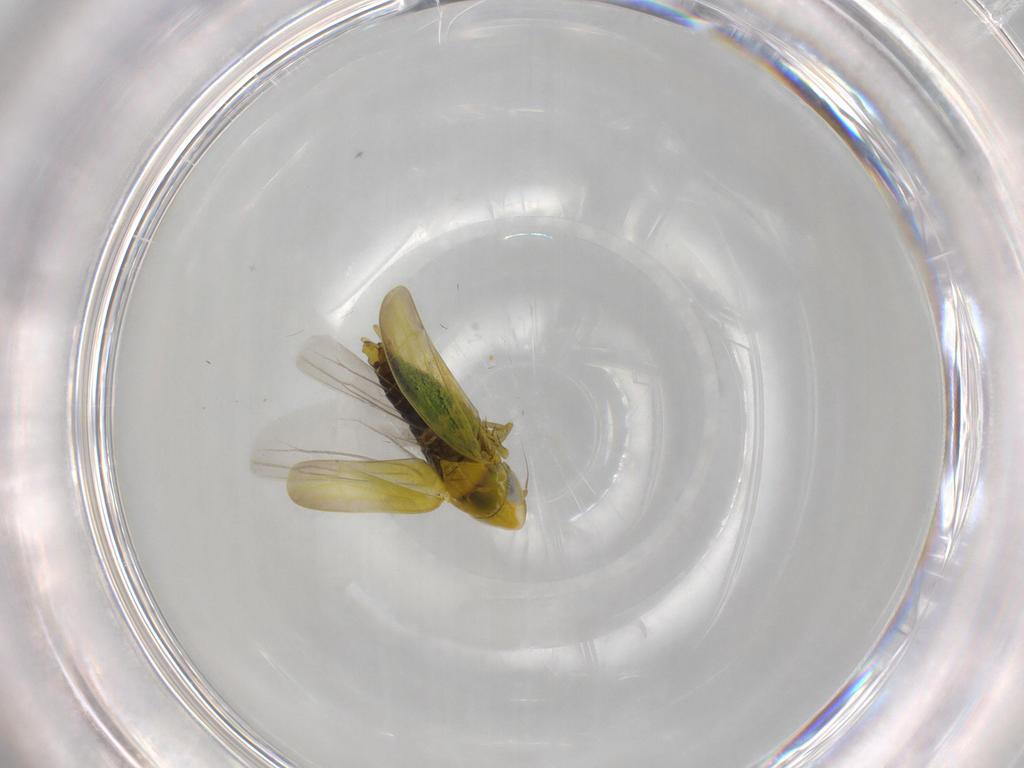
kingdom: Animalia
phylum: Arthropoda
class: Insecta
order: Hemiptera
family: Cicadellidae
